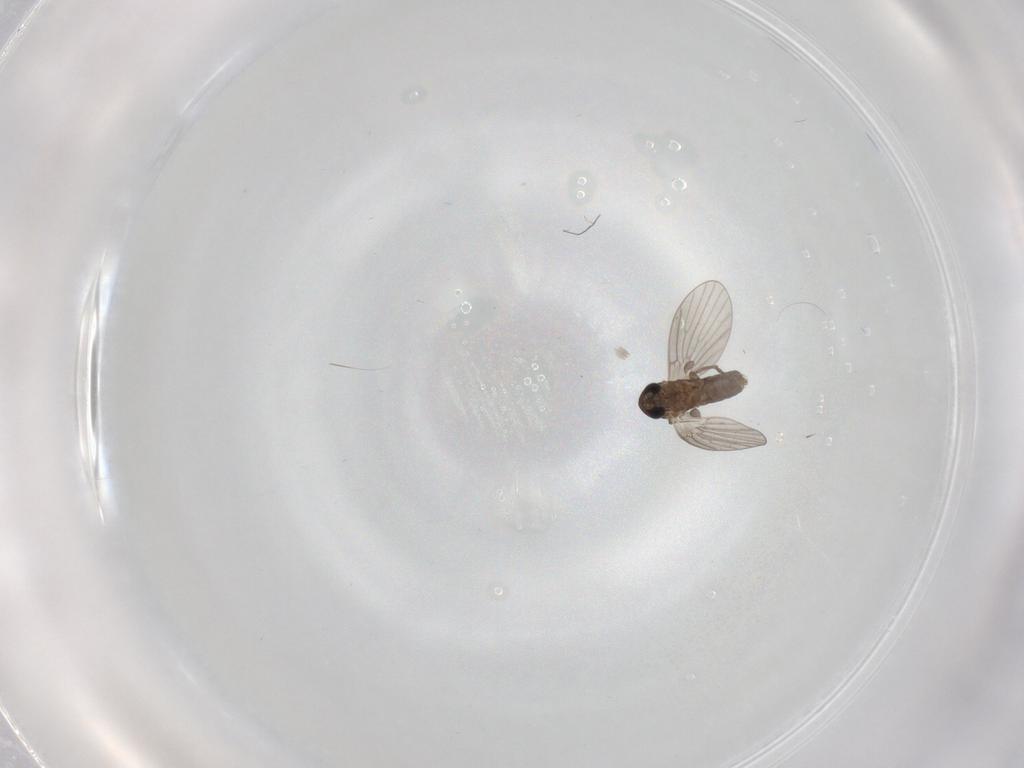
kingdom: Animalia
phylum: Arthropoda
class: Insecta
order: Diptera
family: Psychodidae
